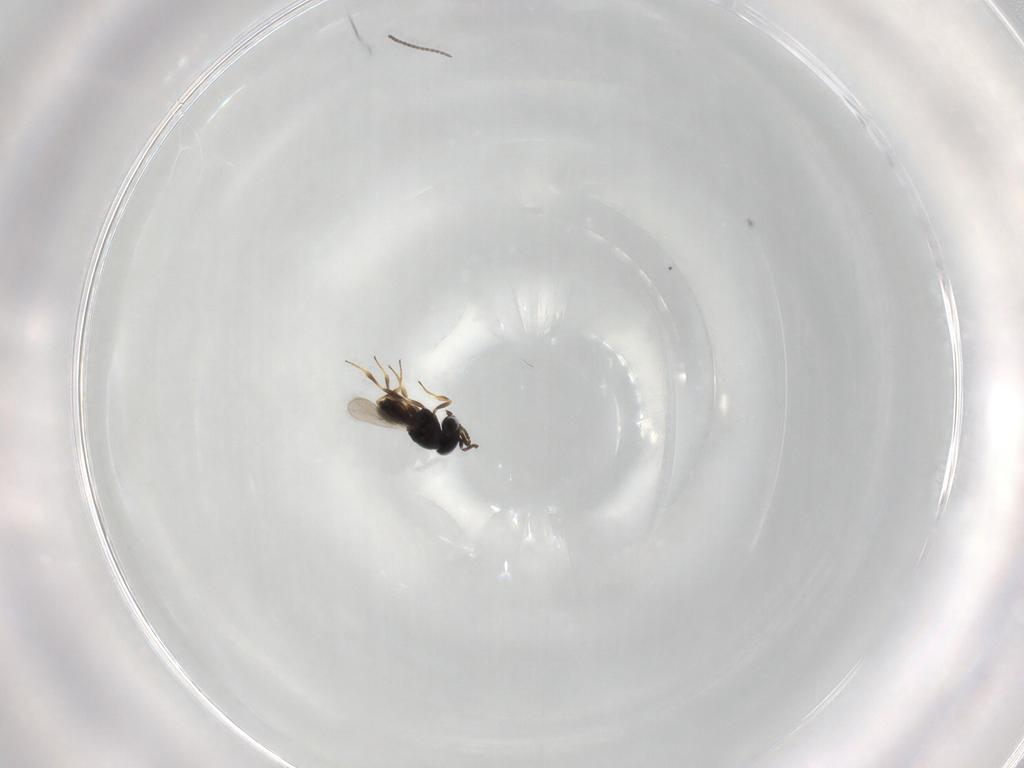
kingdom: Animalia
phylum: Arthropoda
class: Insecta
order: Hymenoptera
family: Scelionidae
